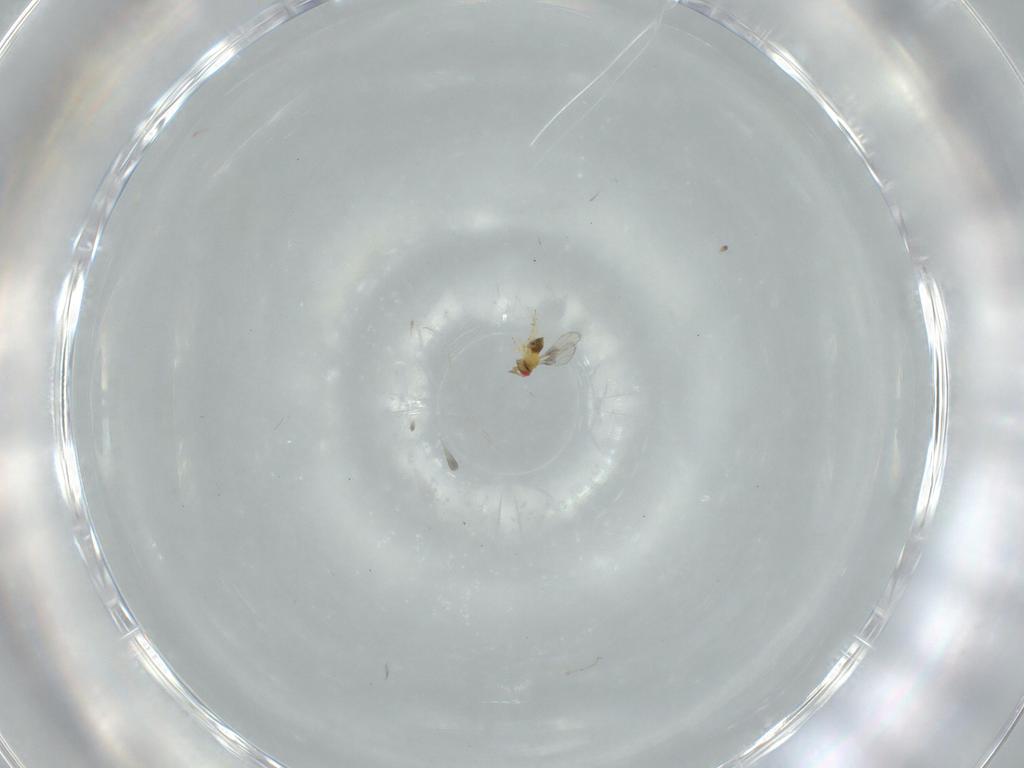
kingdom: Animalia
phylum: Arthropoda
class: Insecta
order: Hymenoptera
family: Trichogrammatidae
